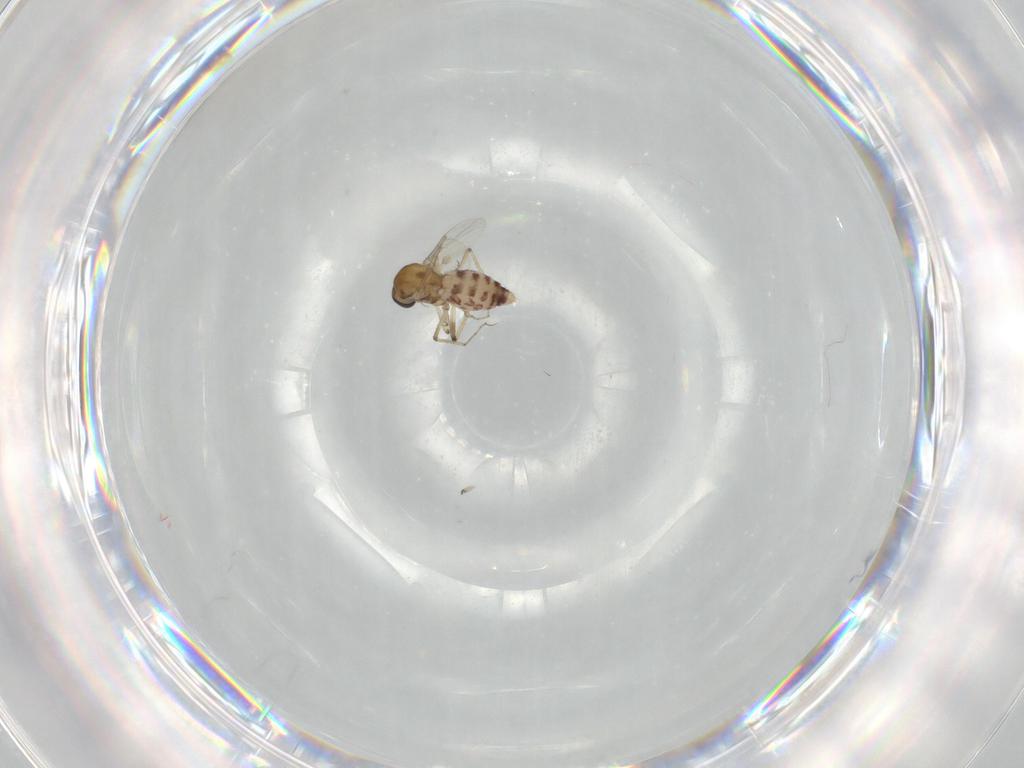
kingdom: Animalia
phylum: Arthropoda
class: Insecta
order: Diptera
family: Ceratopogonidae
